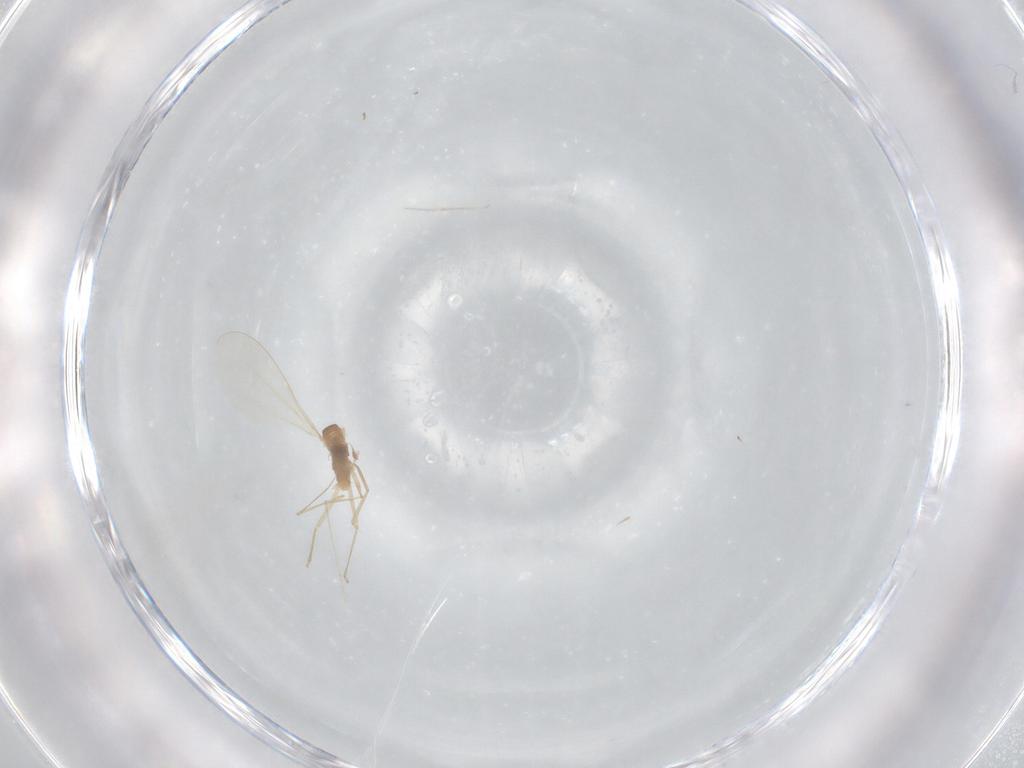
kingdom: Animalia
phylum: Arthropoda
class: Insecta
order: Diptera
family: Cecidomyiidae
